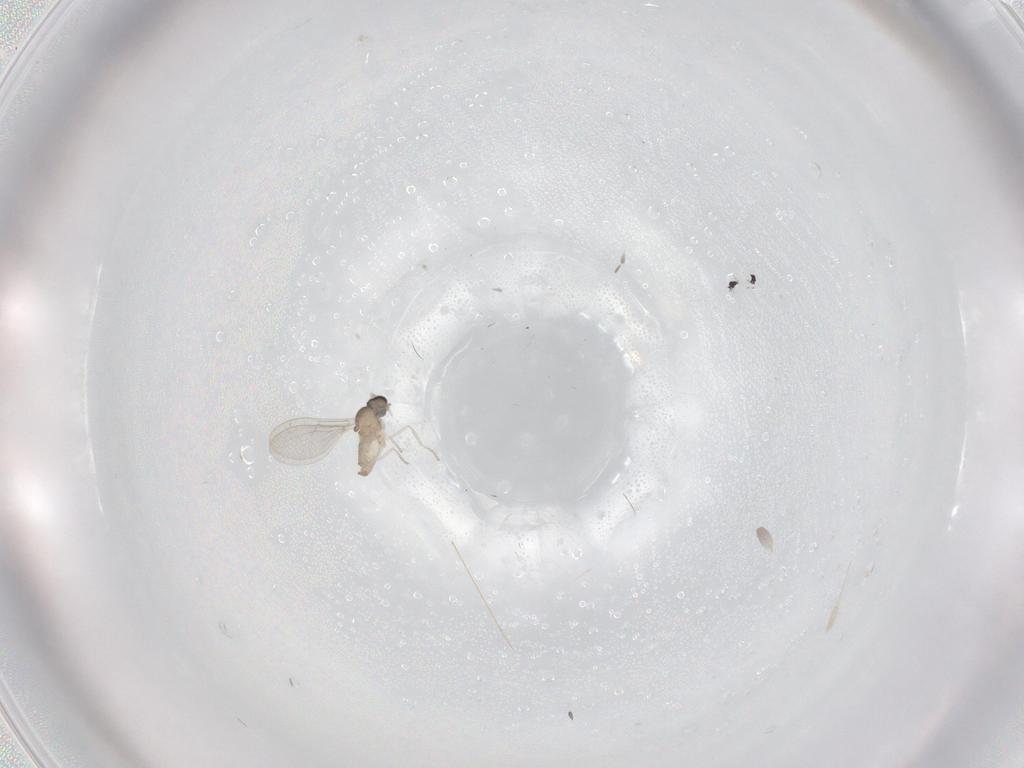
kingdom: Animalia
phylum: Arthropoda
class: Insecta
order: Diptera
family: Cecidomyiidae
